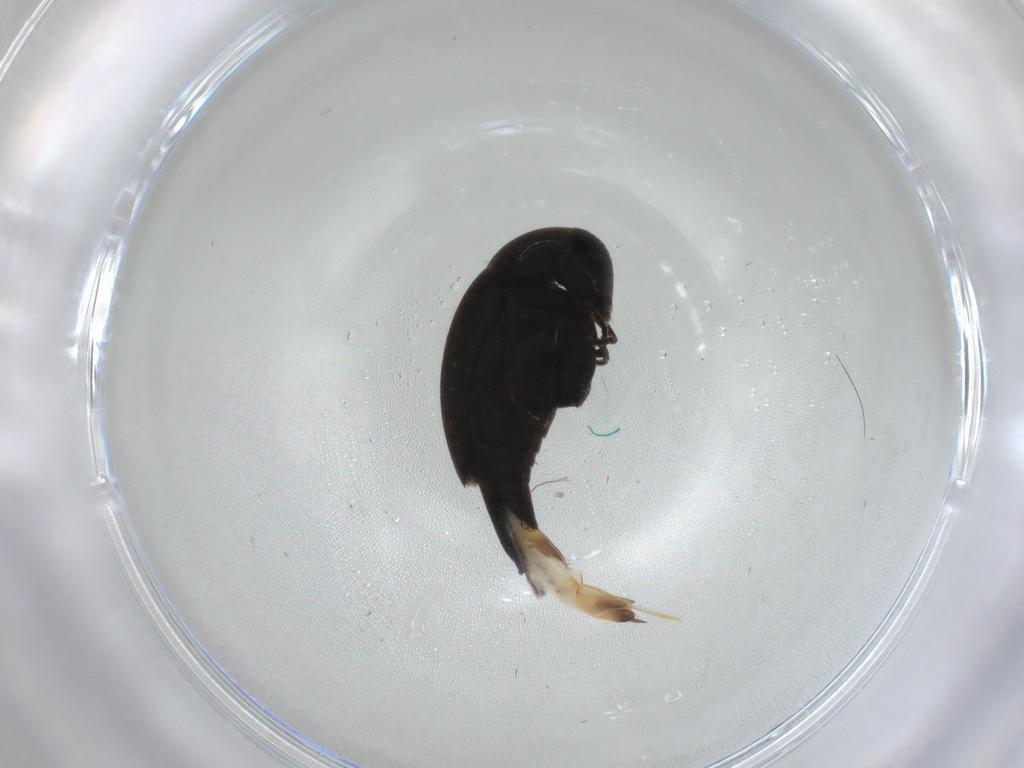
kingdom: Animalia
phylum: Arthropoda
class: Insecta
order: Coleoptera
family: Mordellidae
